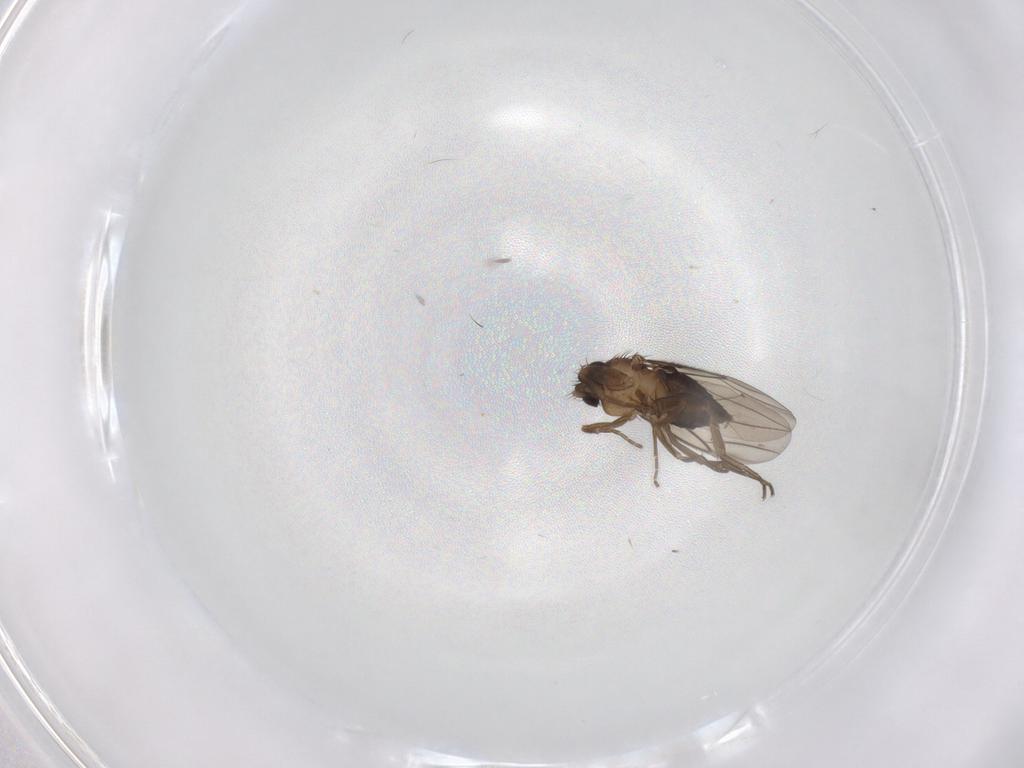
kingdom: Animalia
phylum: Arthropoda
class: Insecta
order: Diptera
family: Phoridae
